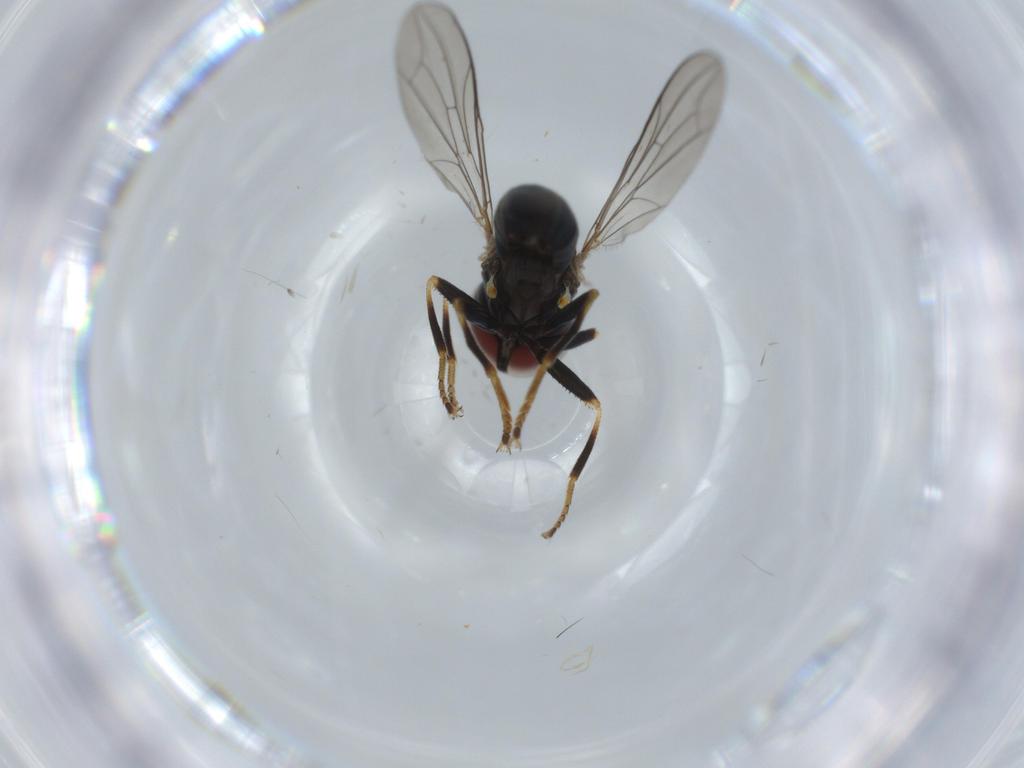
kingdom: Animalia
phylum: Arthropoda
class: Insecta
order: Diptera
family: Pipunculidae
